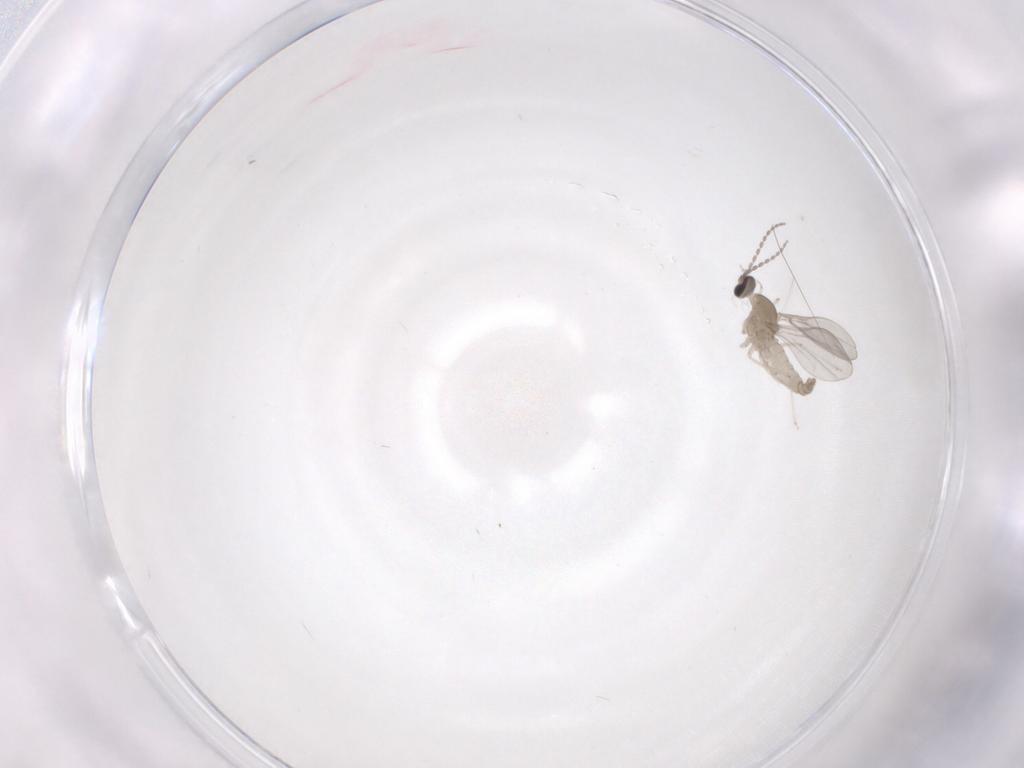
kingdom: Animalia
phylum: Arthropoda
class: Insecta
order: Diptera
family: Cecidomyiidae
